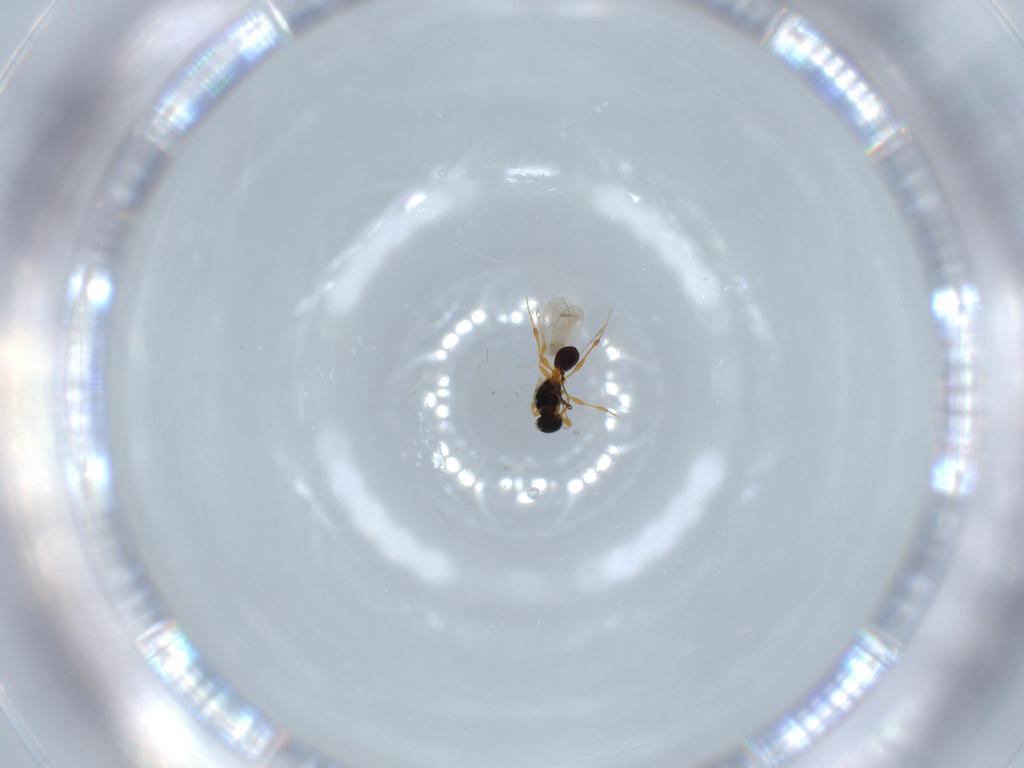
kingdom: Animalia
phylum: Arthropoda
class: Insecta
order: Hymenoptera
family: Platygastridae
